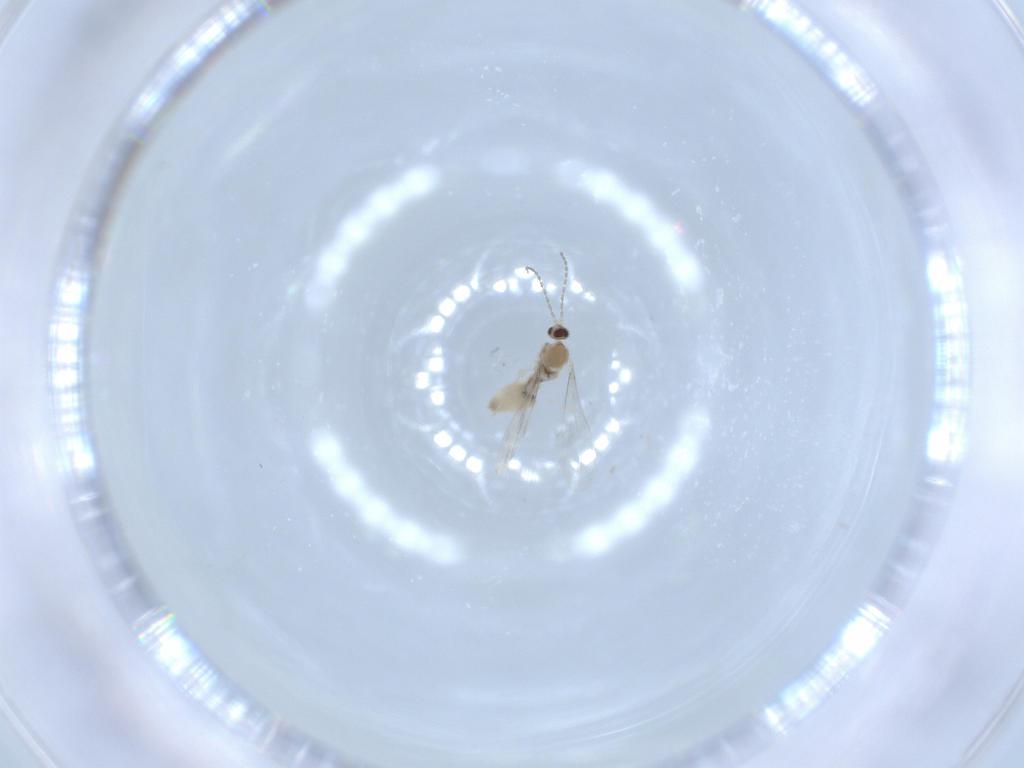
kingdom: Animalia
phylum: Arthropoda
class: Insecta
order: Diptera
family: Cecidomyiidae
